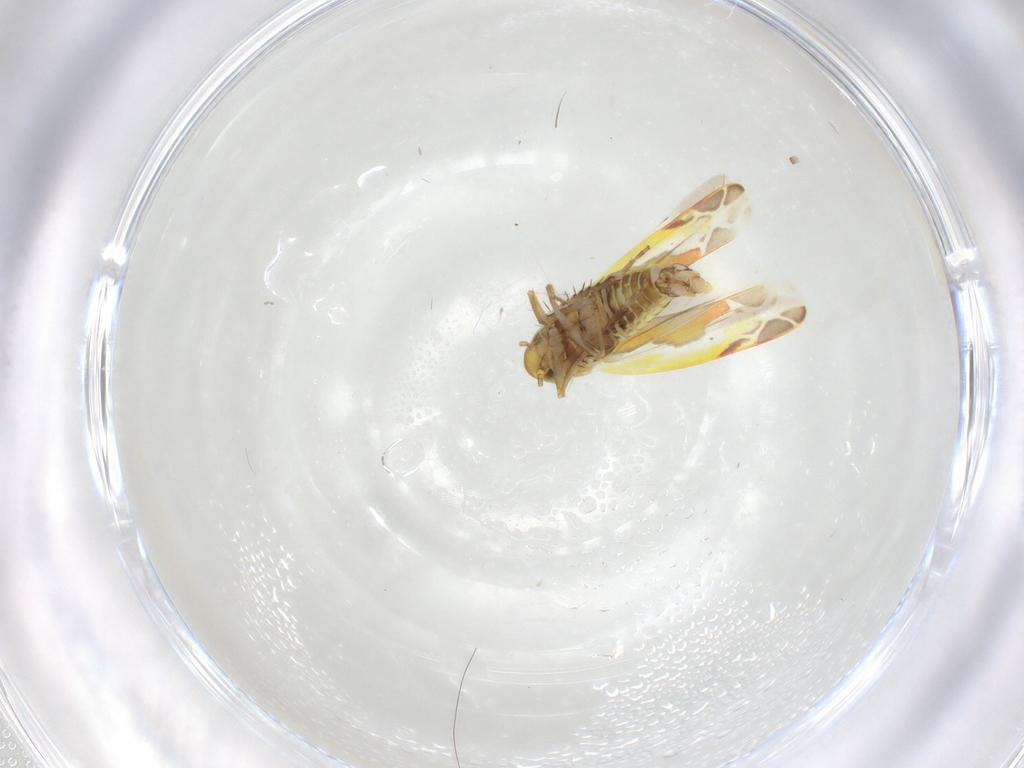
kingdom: Animalia
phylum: Arthropoda
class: Insecta
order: Hemiptera
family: Cicadellidae
